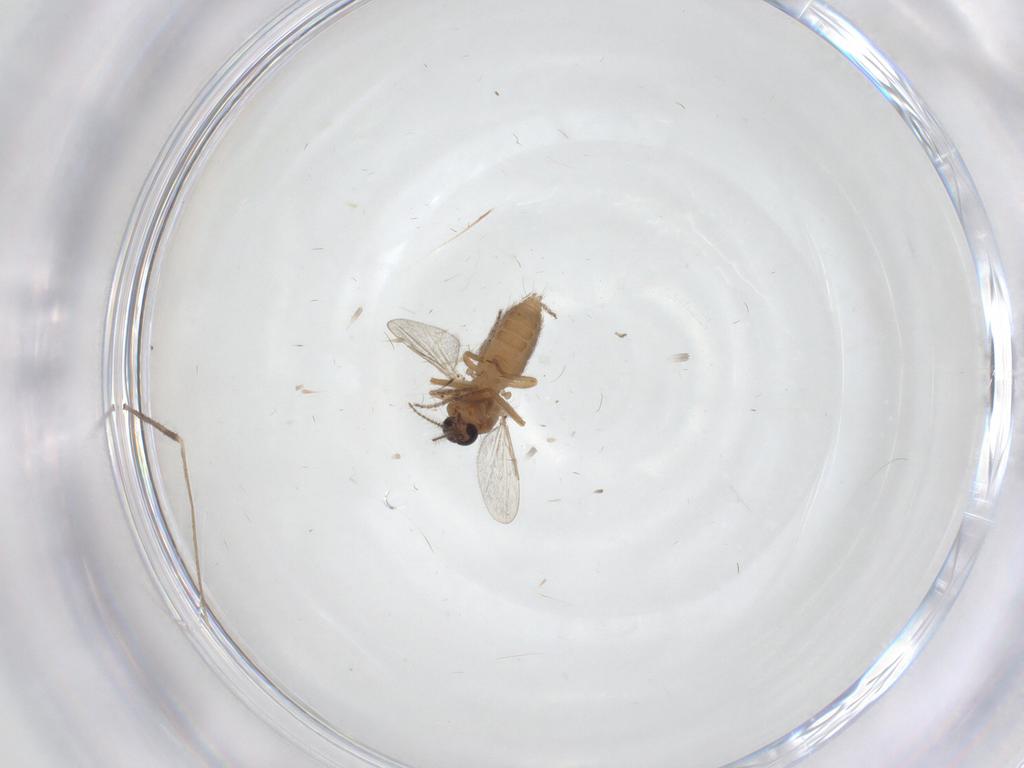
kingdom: Animalia
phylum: Arthropoda
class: Insecta
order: Diptera
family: Ceratopogonidae
